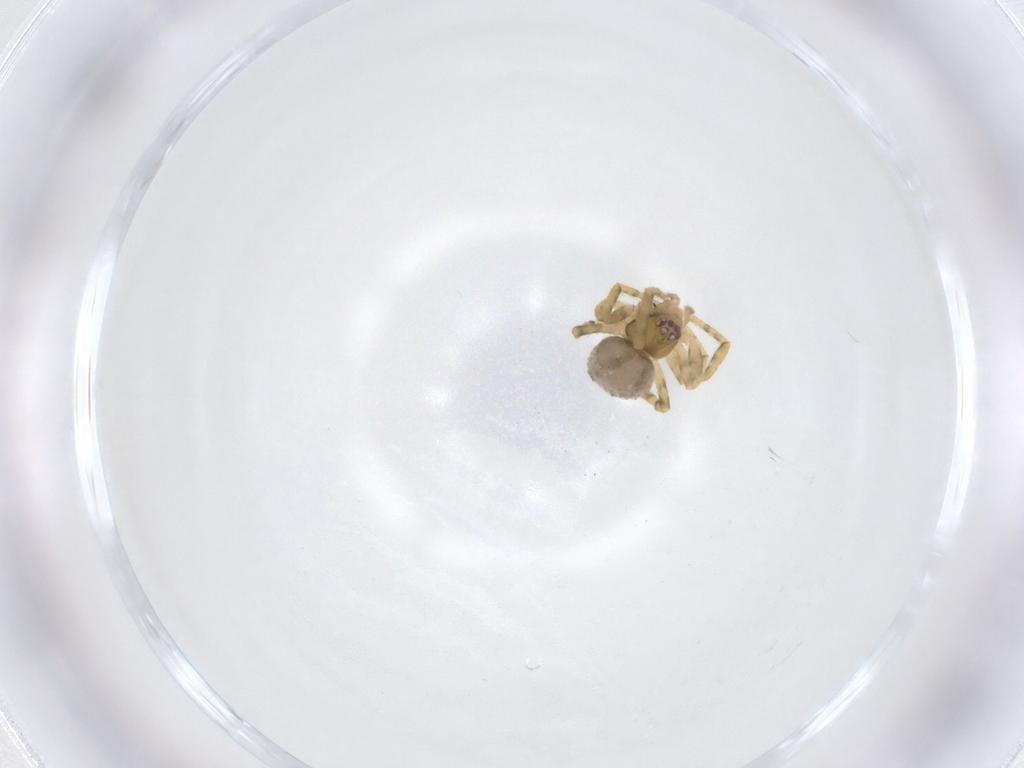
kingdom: Animalia
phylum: Arthropoda
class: Arachnida
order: Araneae
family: Theridiidae
